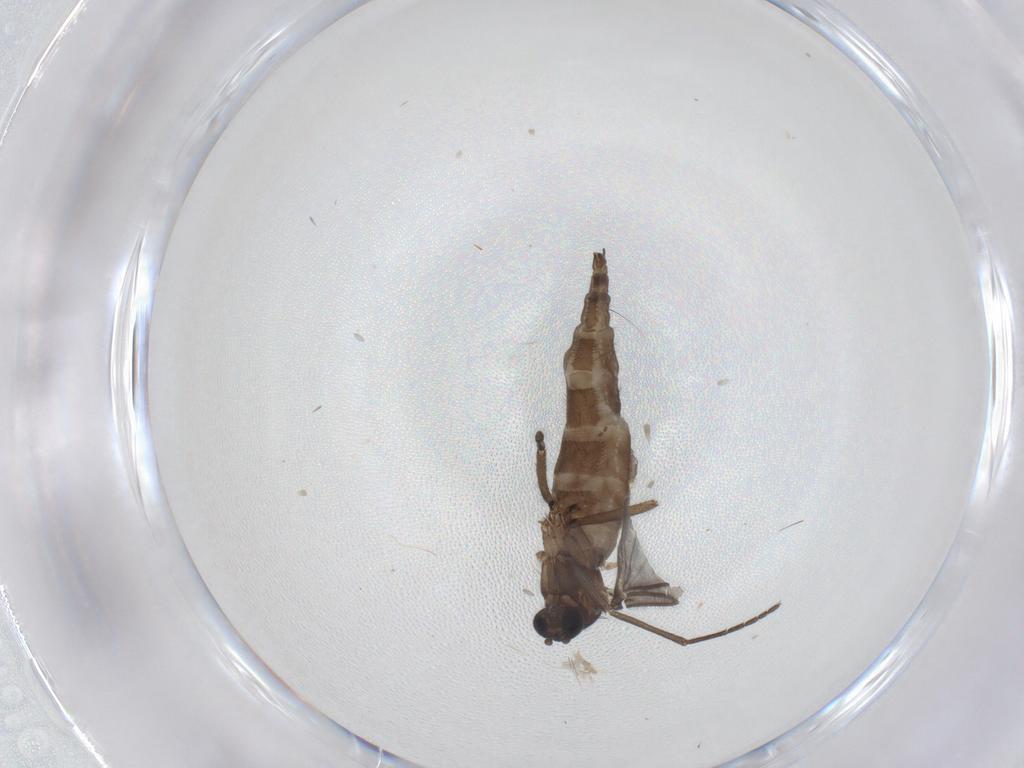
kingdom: Animalia
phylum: Arthropoda
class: Insecta
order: Diptera
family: Sciaridae
